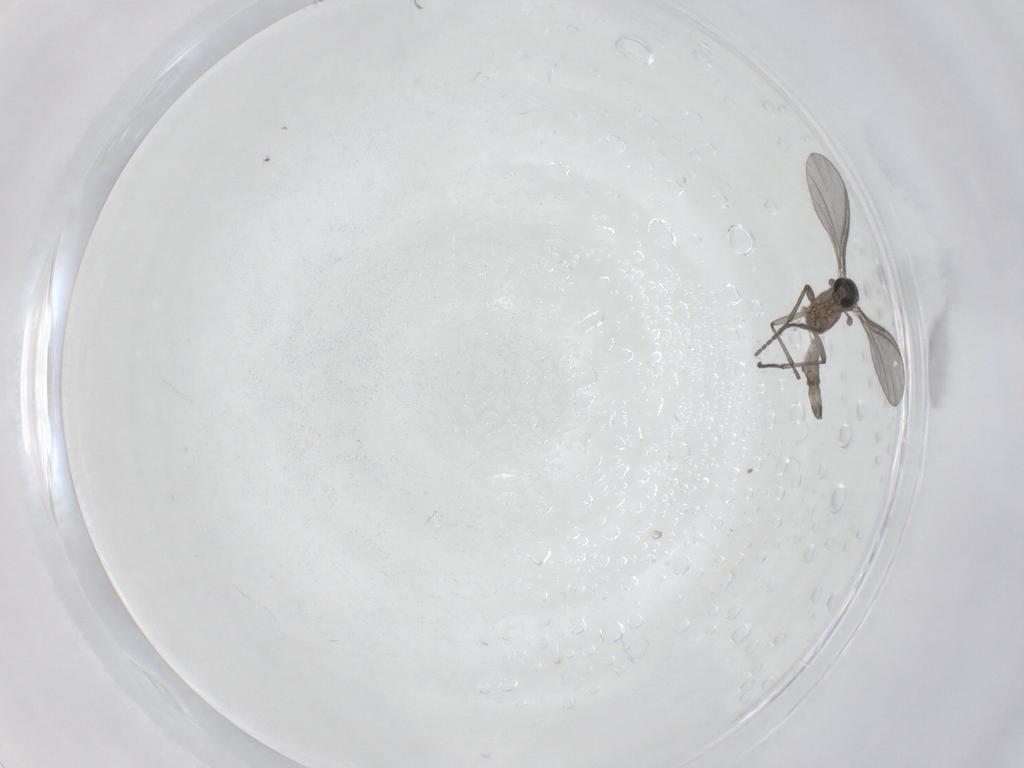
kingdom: Animalia
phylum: Arthropoda
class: Insecta
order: Diptera
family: Sciaridae
